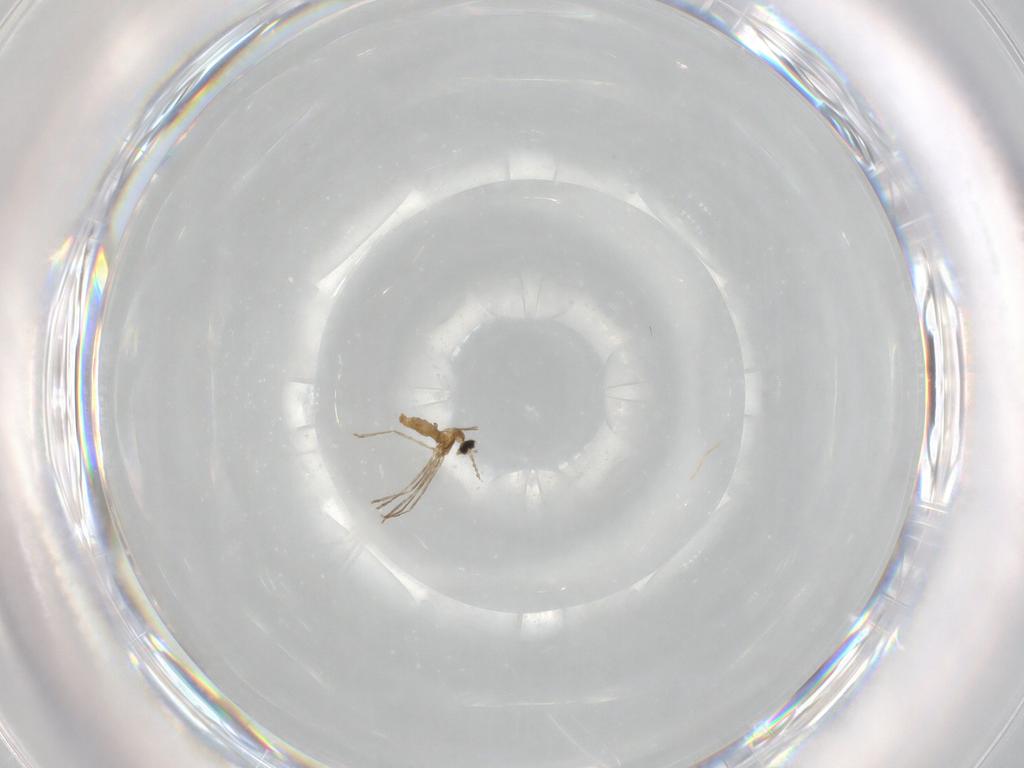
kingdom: Animalia
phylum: Arthropoda
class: Insecta
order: Diptera
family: Cecidomyiidae
